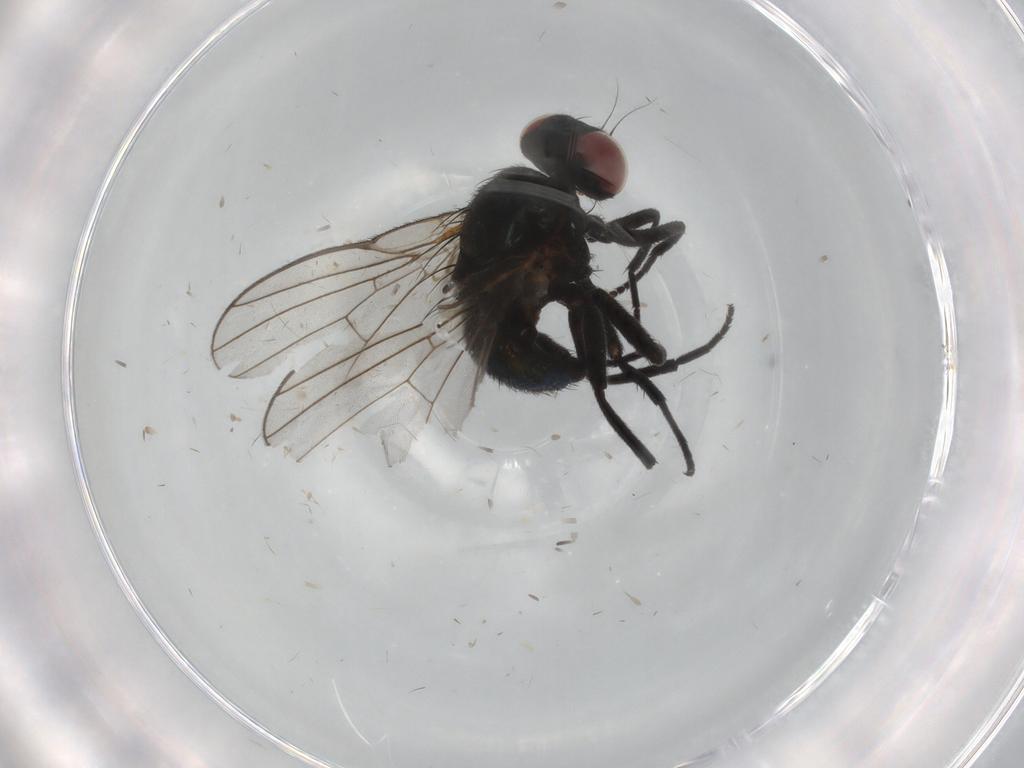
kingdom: Animalia
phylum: Arthropoda
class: Insecta
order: Diptera
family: Agromyzidae
